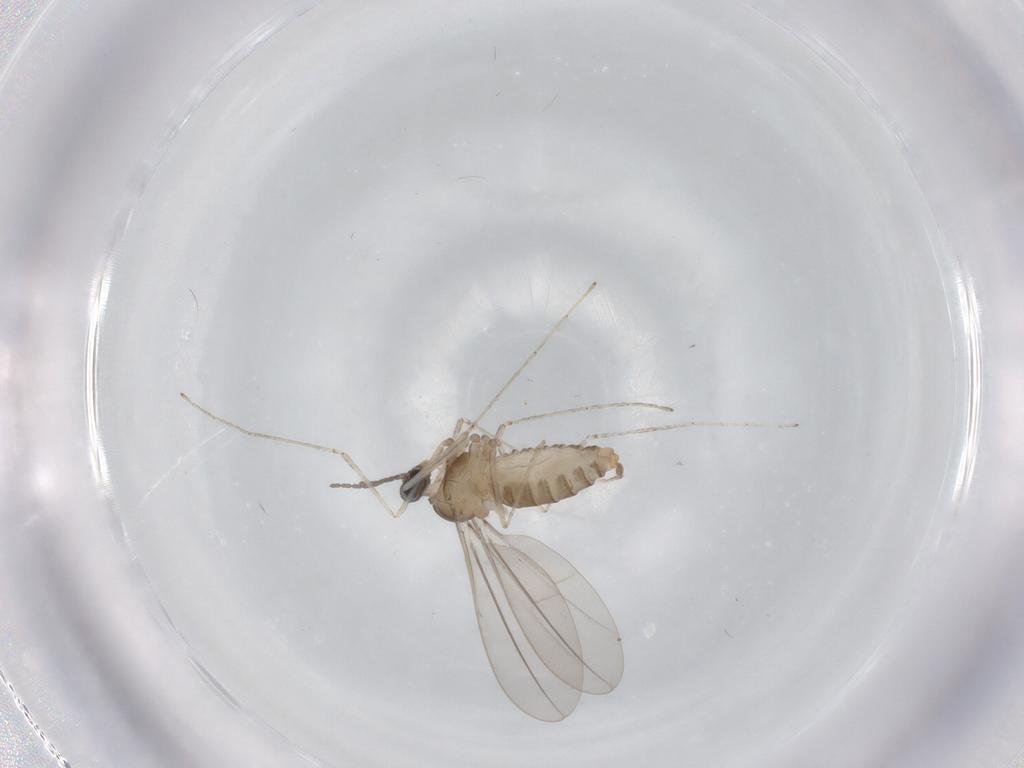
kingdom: Animalia
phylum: Arthropoda
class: Insecta
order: Diptera
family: Cecidomyiidae
